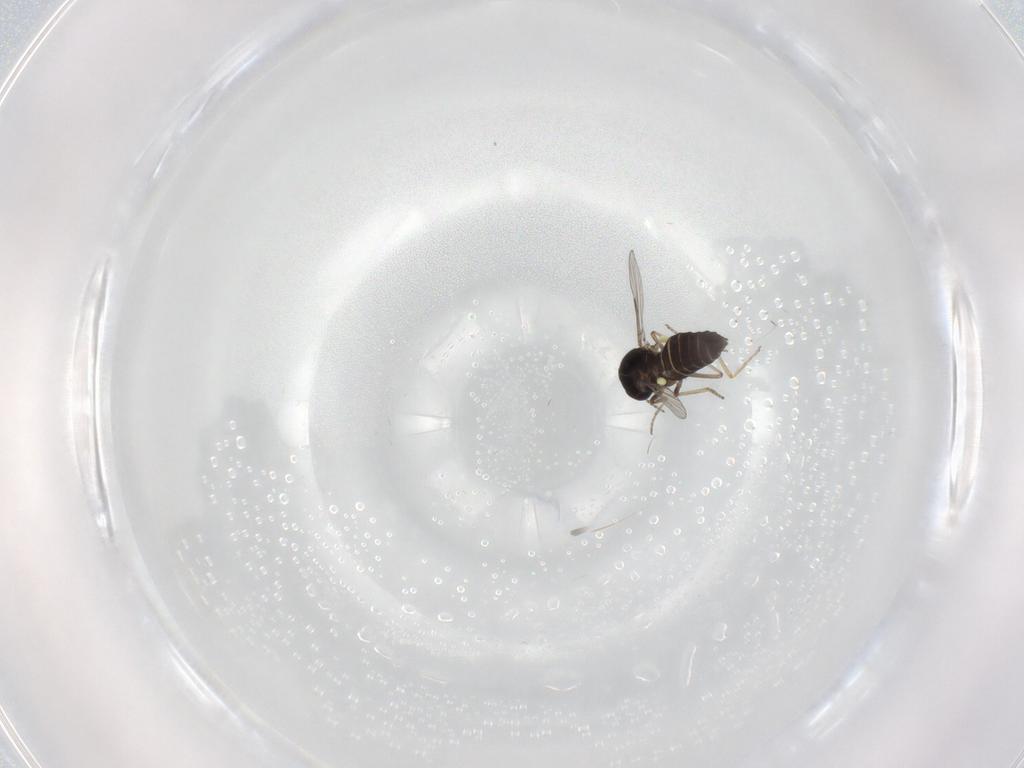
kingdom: Animalia
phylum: Arthropoda
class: Insecta
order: Diptera
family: Ceratopogonidae
